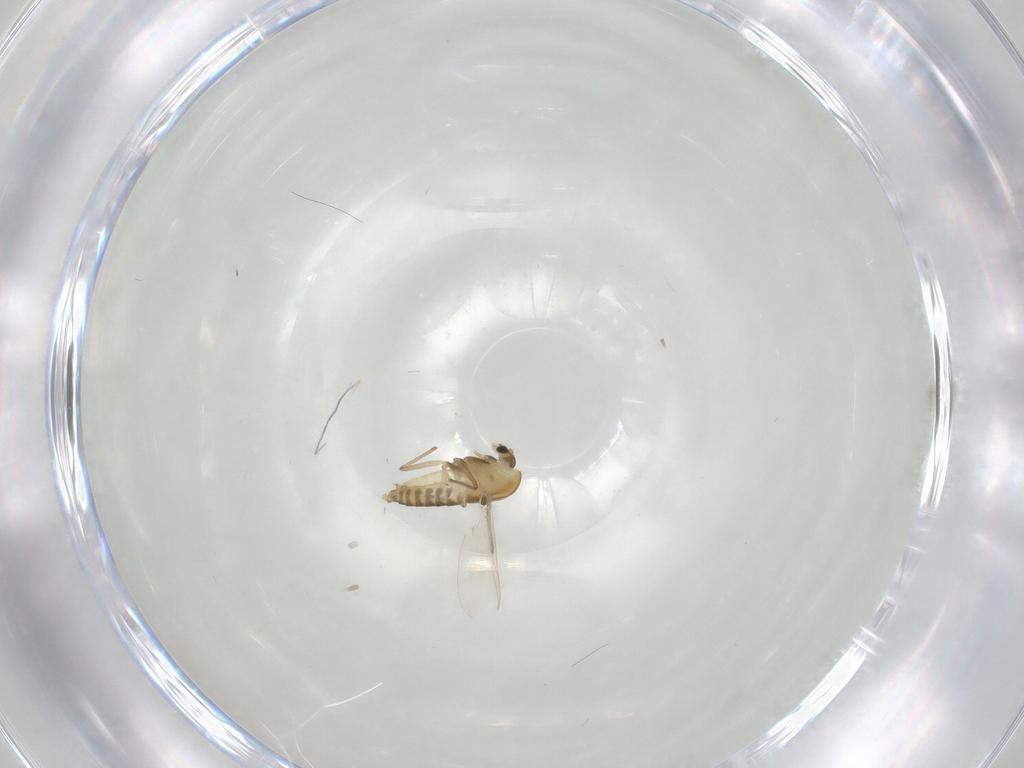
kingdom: Animalia
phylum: Arthropoda
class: Insecta
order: Diptera
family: Chironomidae
